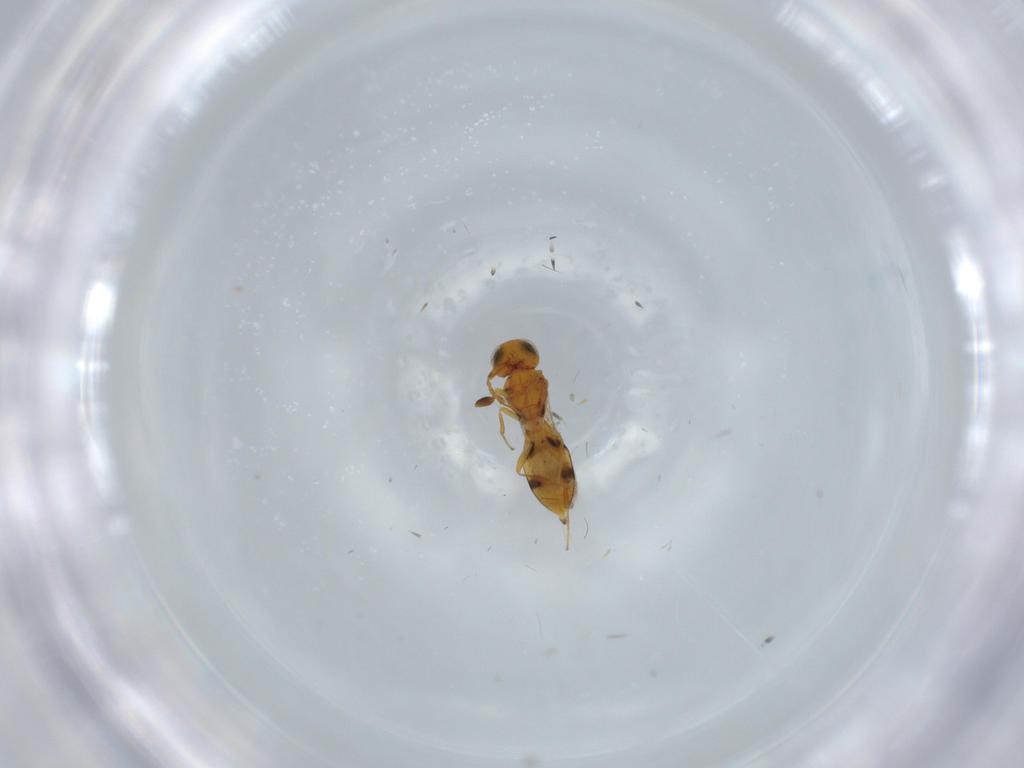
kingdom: Animalia
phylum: Arthropoda
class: Insecta
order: Hymenoptera
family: Scelionidae
